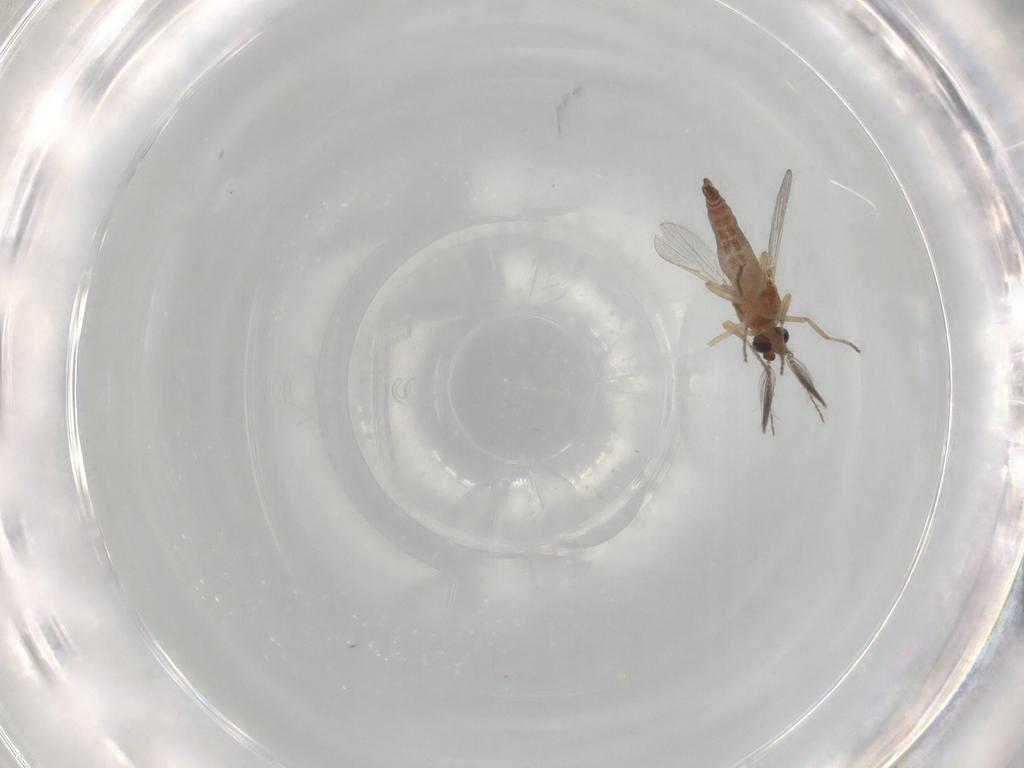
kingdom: Animalia
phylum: Arthropoda
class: Insecta
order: Diptera
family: Ceratopogonidae
